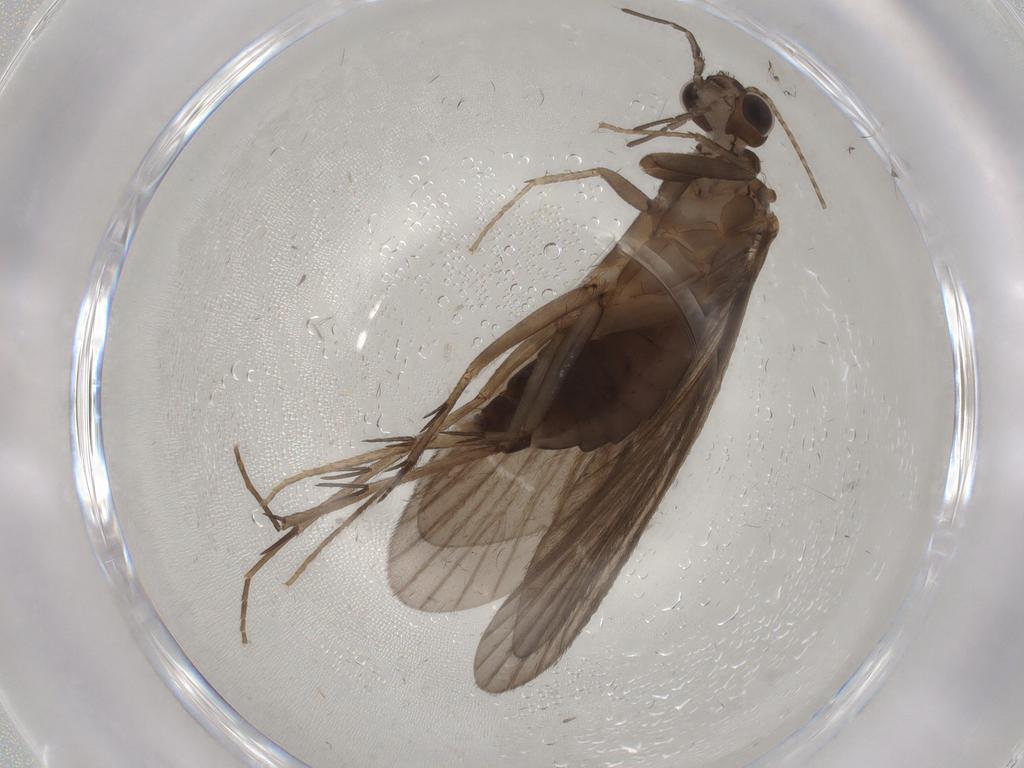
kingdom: Animalia
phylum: Arthropoda
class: Insecta
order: Trichoptera
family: Philopotamidae
